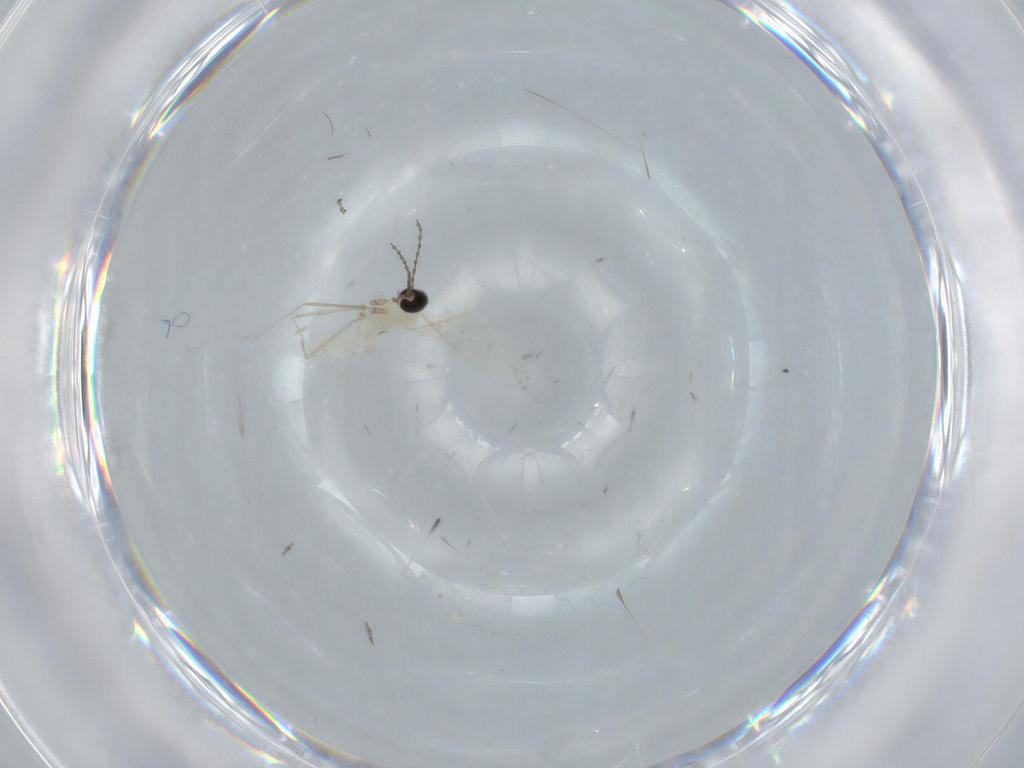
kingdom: Animalia
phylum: Arthropoda
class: Insecta
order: Diptera
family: Cecidomyiidae
